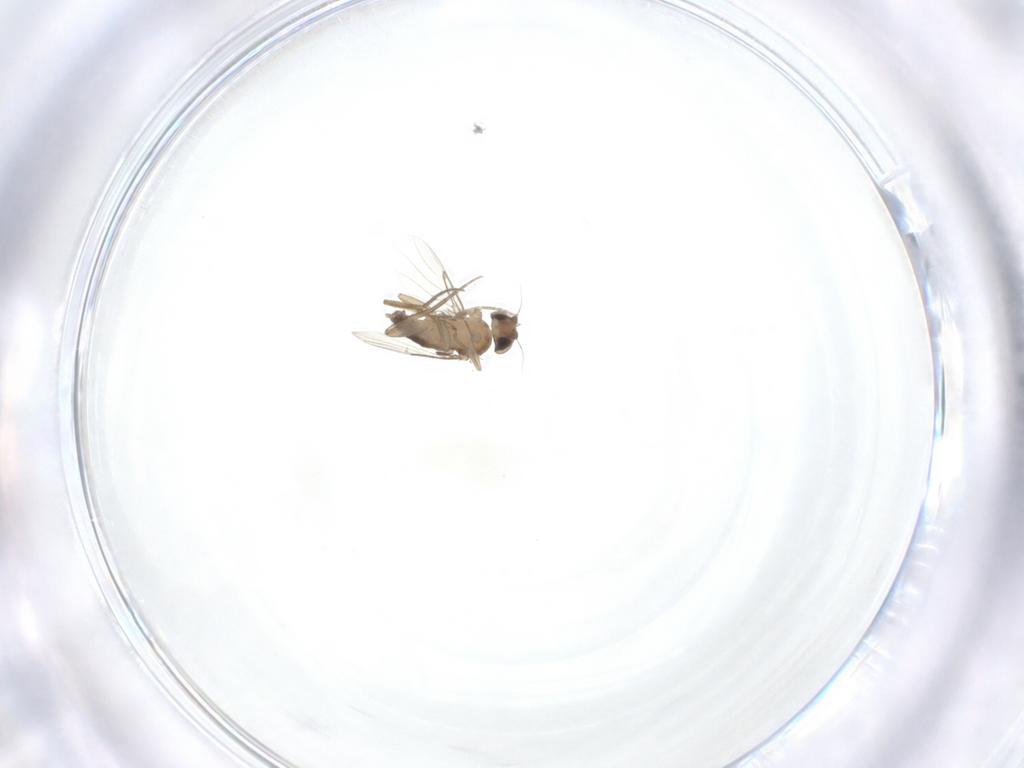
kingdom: Animalia
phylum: Arthropoda
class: Insecta
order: Diptera
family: Phoridae
